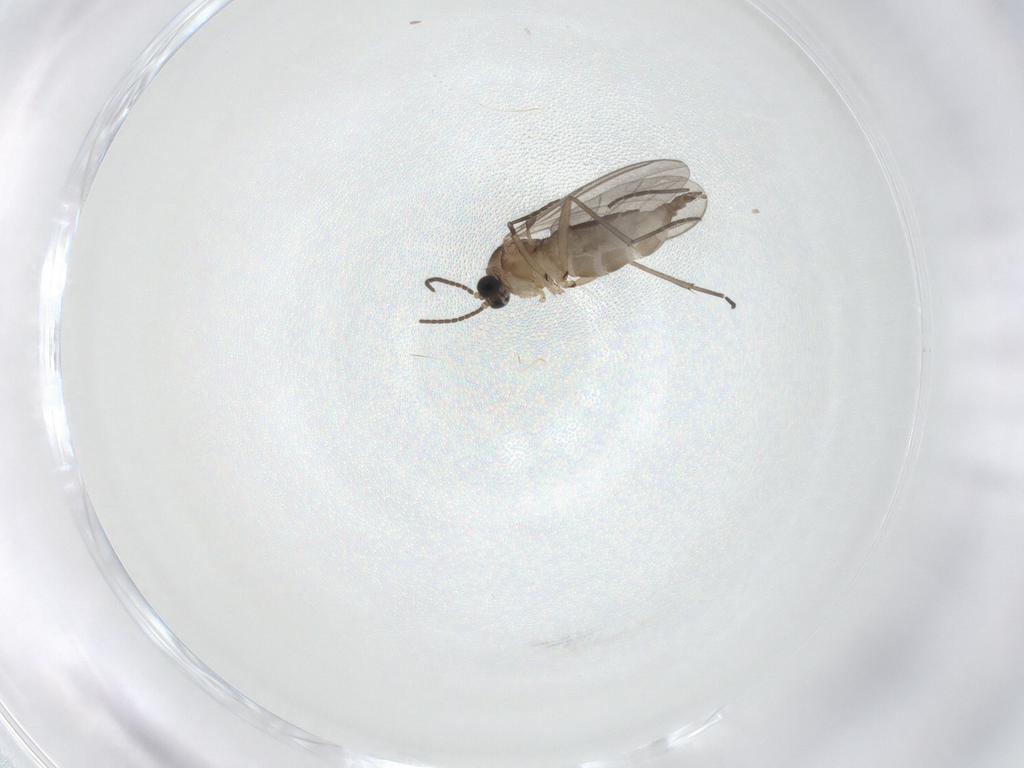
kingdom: Animalia
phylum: Arthropoda
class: Insecta
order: Diptera
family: Sciaridae
